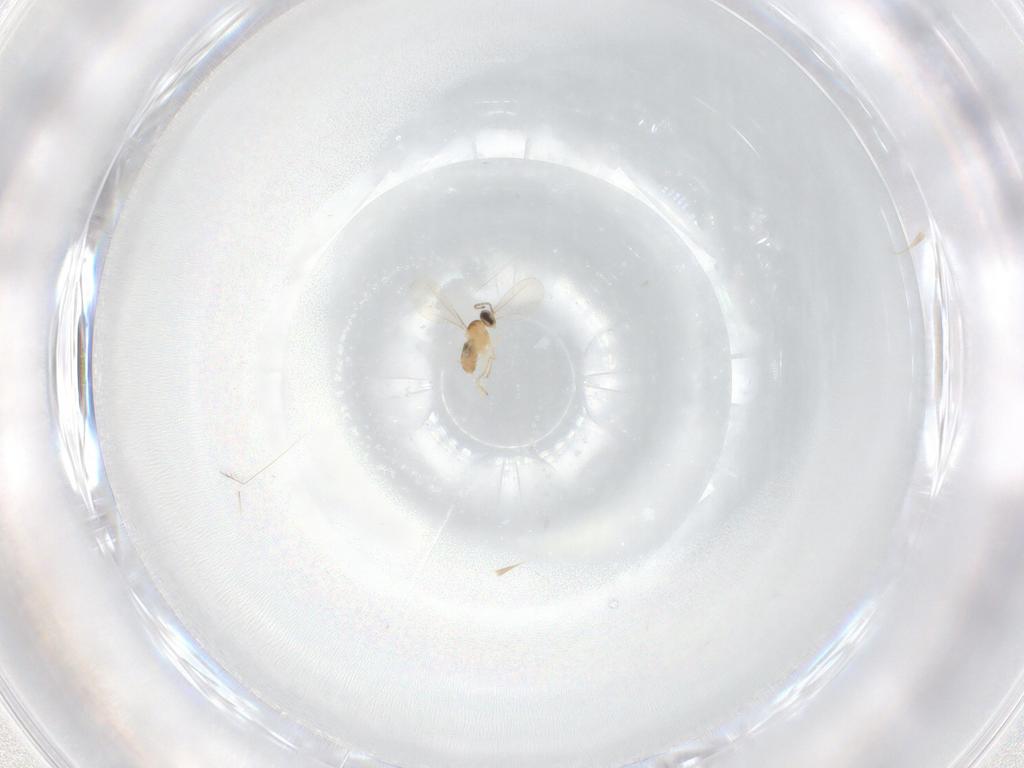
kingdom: Animalia
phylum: Arthropoda
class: Insecta
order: Diptera
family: Cecidomyiidae
